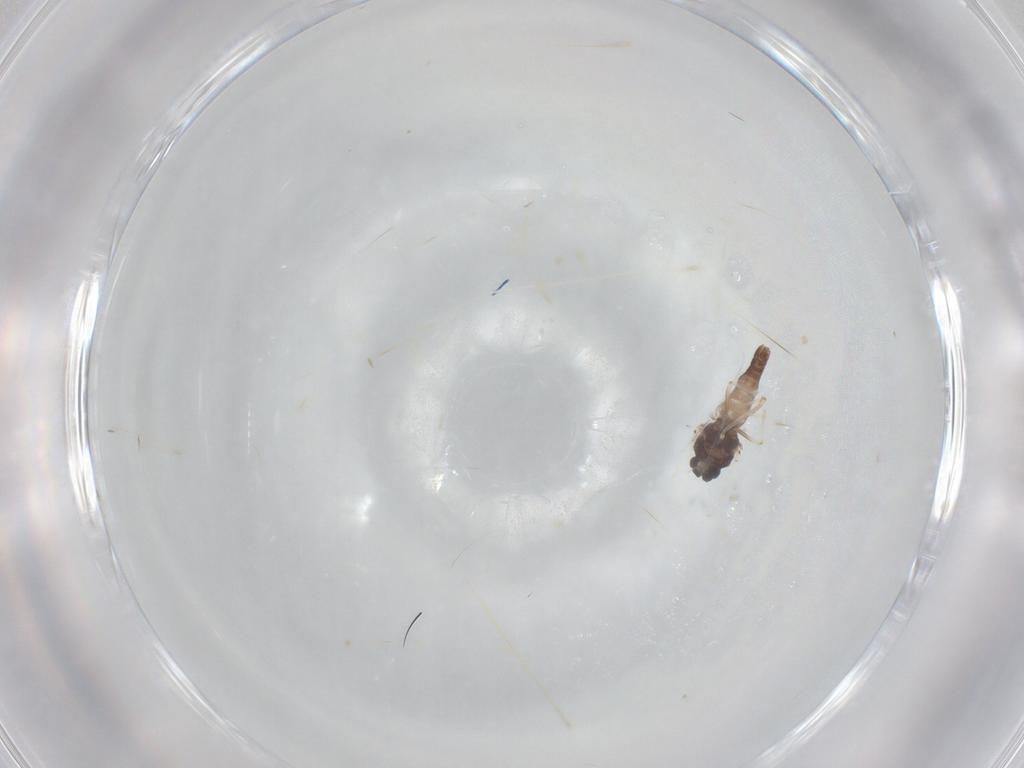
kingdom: Animalia
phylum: Arthropoda
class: Insecta
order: Diptera
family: Ceratopogonidae
